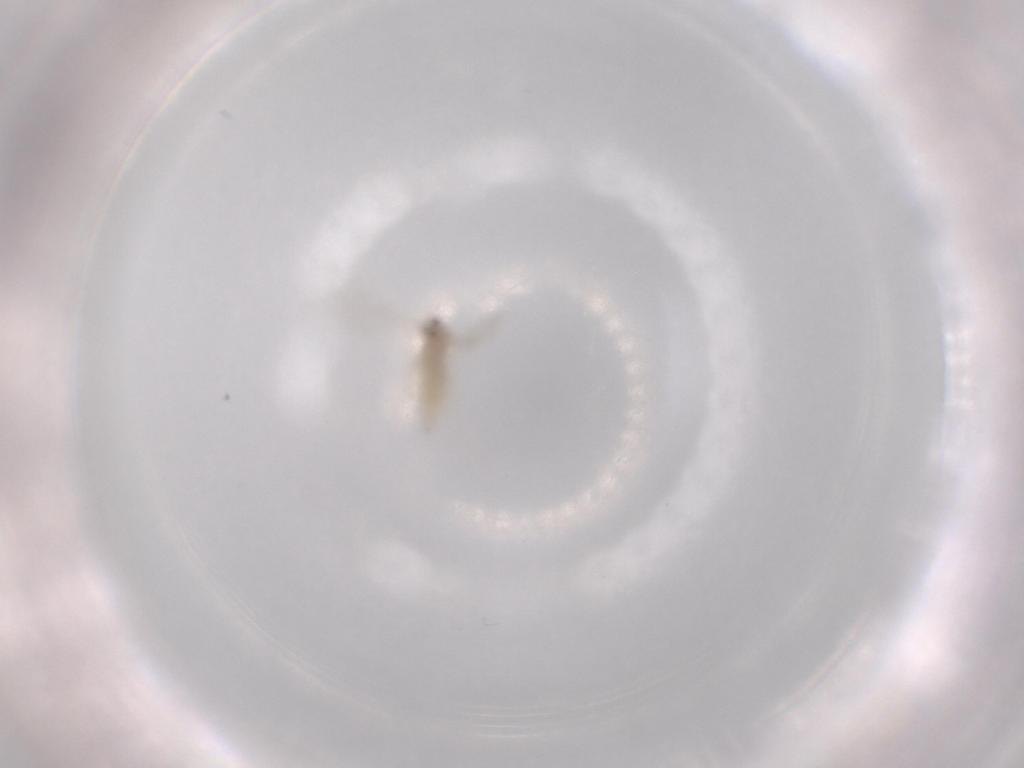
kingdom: Animalia
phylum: Arthropoda
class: Insecta
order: Diptera
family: Cecidomyiidae
